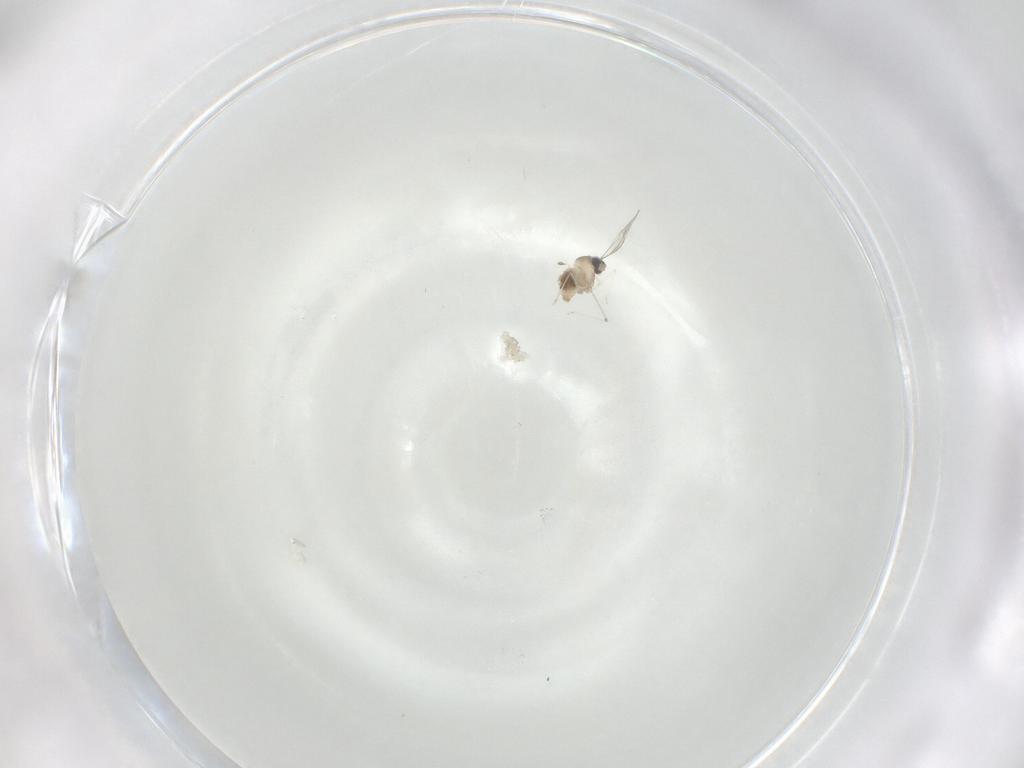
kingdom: Animalia
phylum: Arthropoda
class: Insecta
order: Diptera
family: Cecidomyiidae
